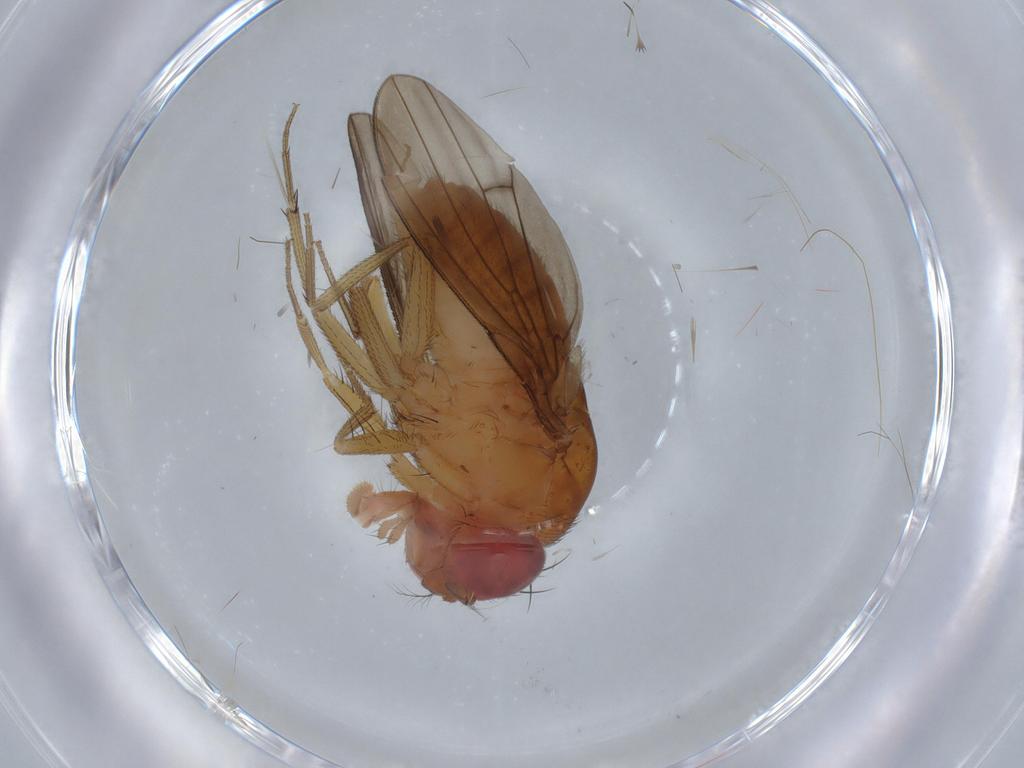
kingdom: Animalia
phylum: Arthropoda
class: Insecta
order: Diptera
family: Drosophilidae
